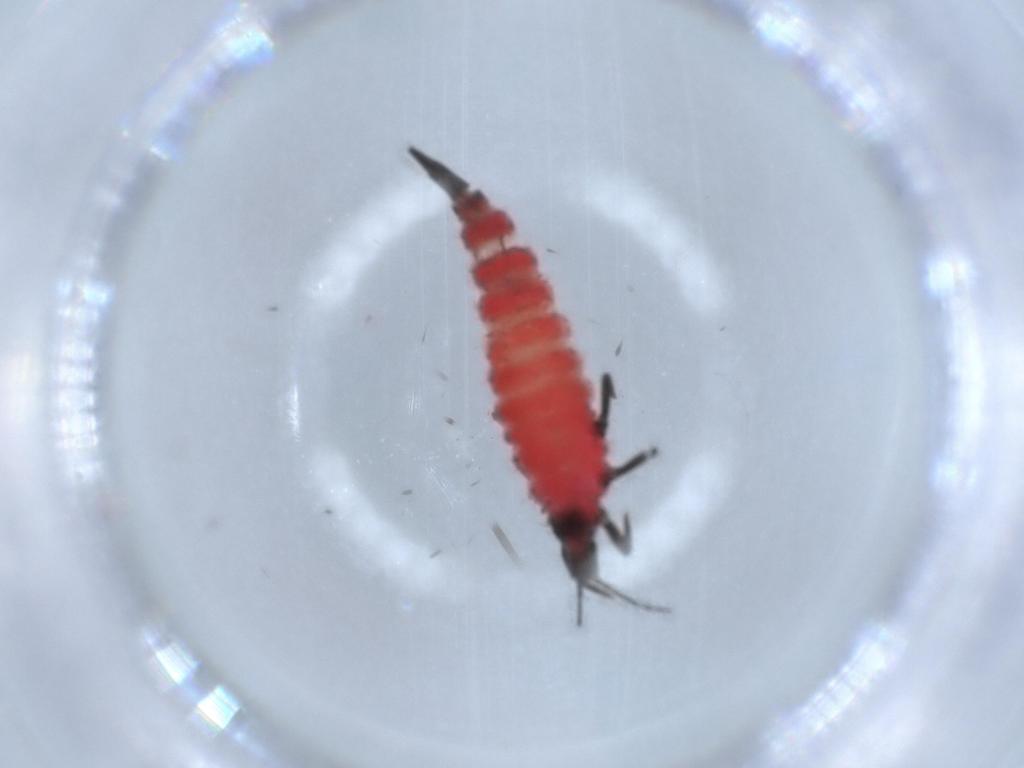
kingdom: Animalia
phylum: Arthropoda
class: Insecta
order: Thysanoptera
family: Phlaeothripidae
